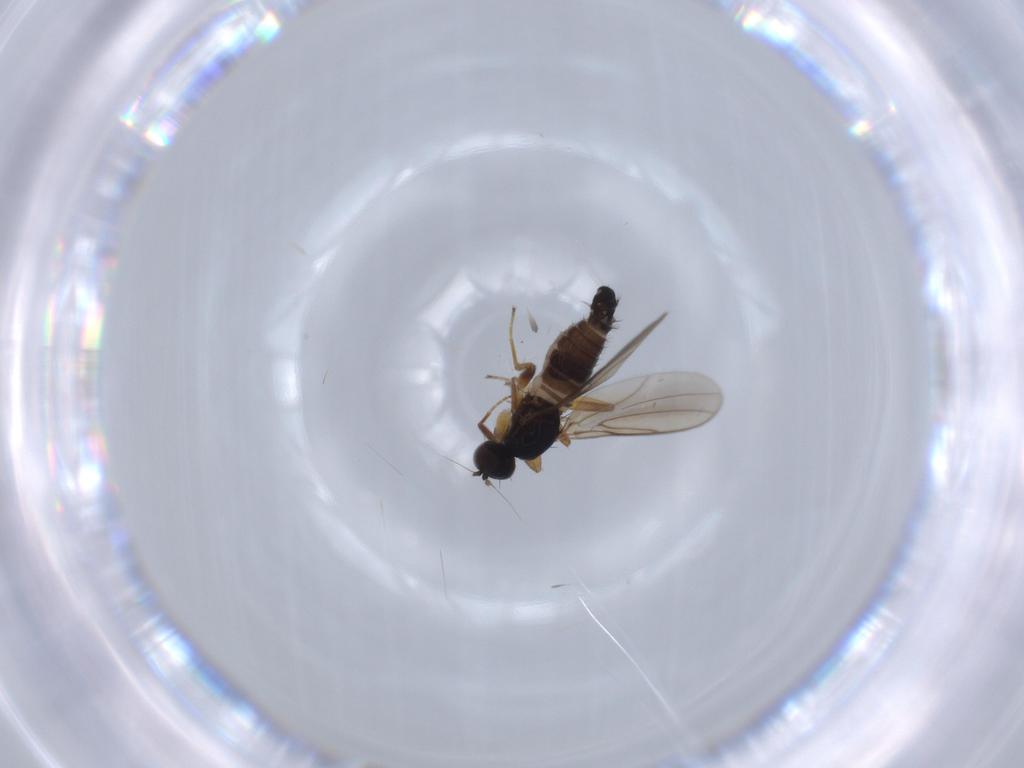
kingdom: Animalia
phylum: Arthropoda
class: Insecta
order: Diptera
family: Hybotidae
